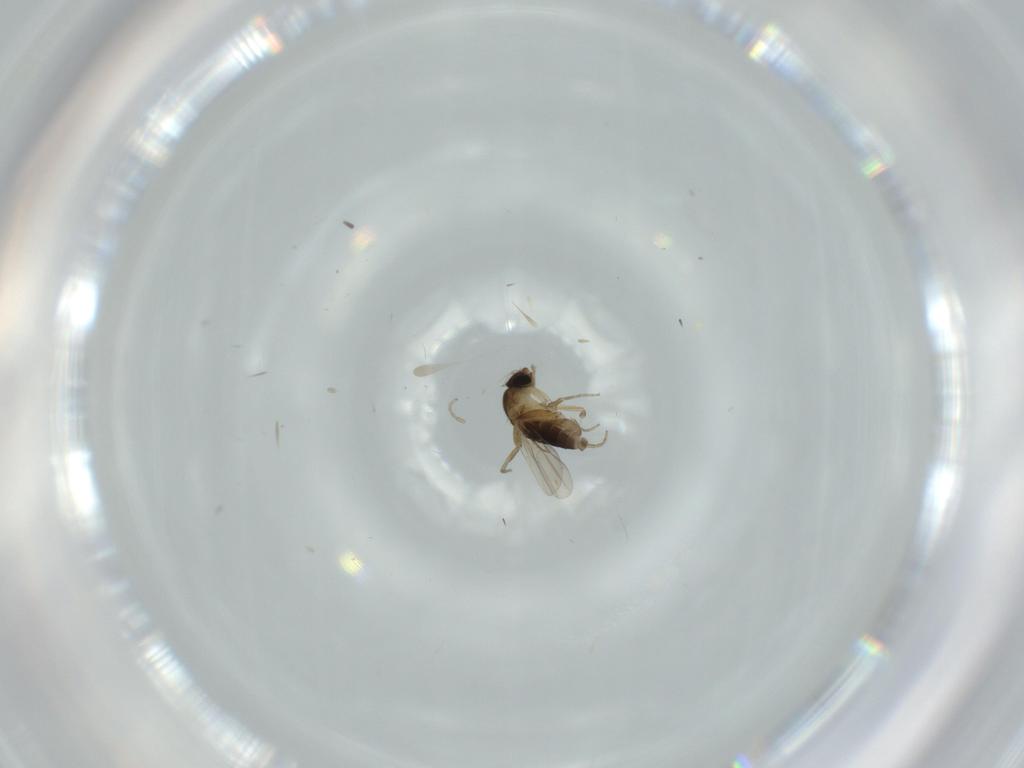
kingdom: Animalia
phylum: Arthropoda
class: Insecta
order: Diptera
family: Phoridae
